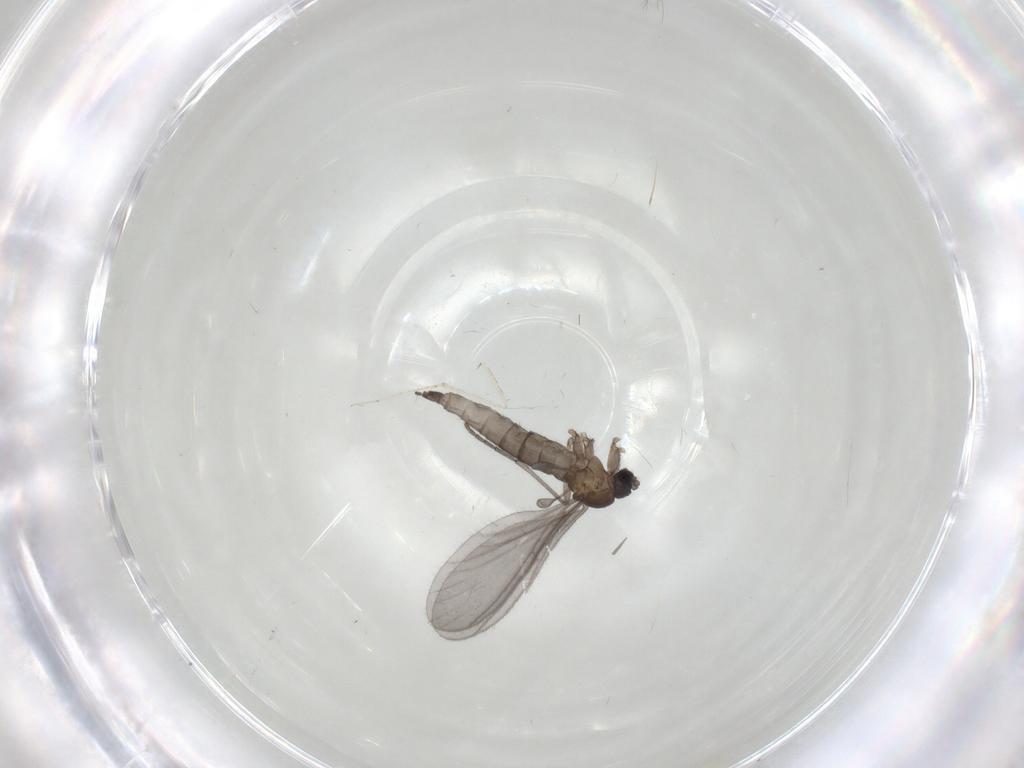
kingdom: Animalia
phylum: Arthropoda
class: Insecta
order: Diptera
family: Sciaridae
